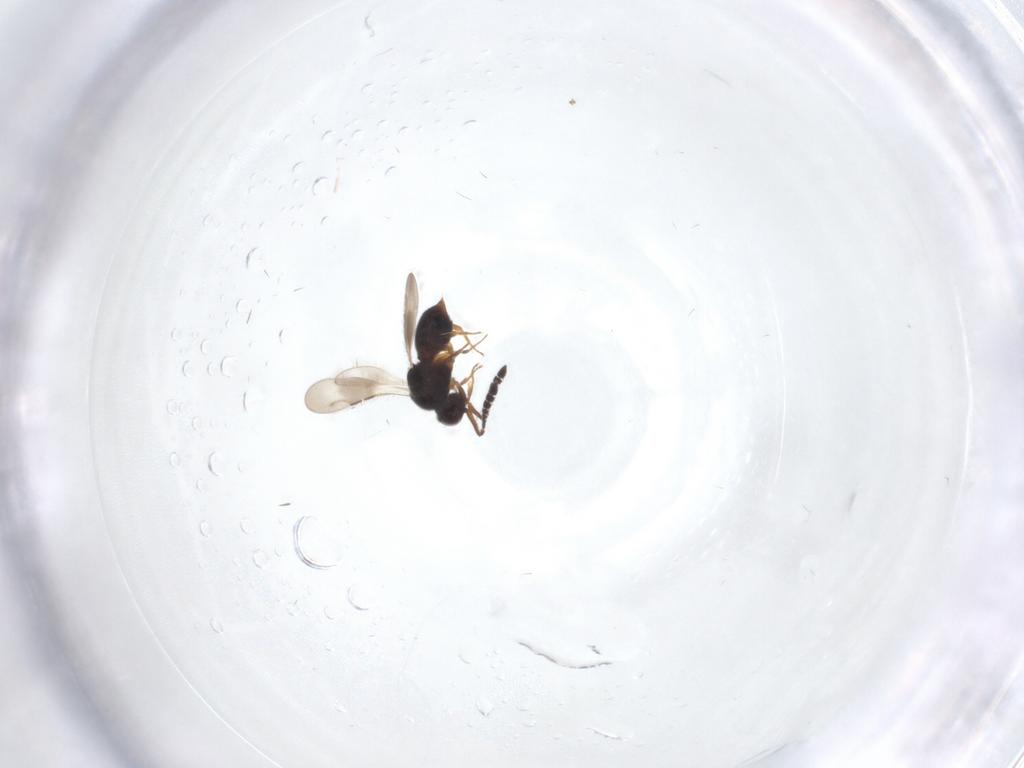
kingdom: Animalia
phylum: Arthropoda
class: Insecta
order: Hymenoptera
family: Ceraphronidae
